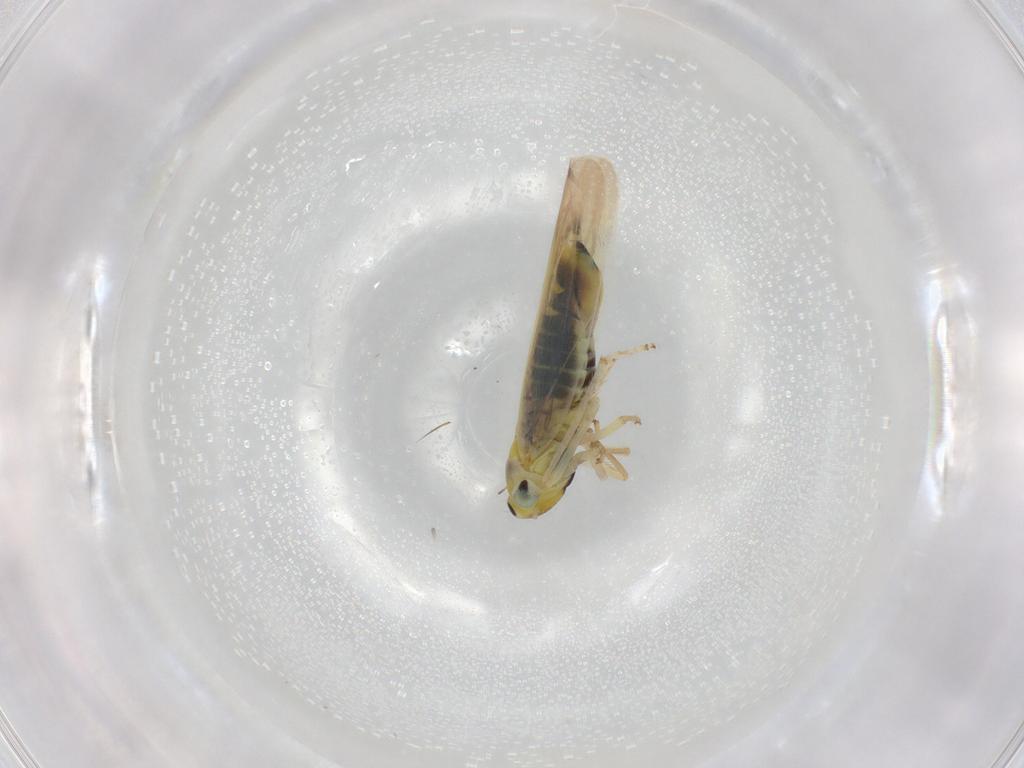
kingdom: Animalia
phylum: Arthropoda
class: Insecta
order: Hemiptera
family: Cicadellidae
